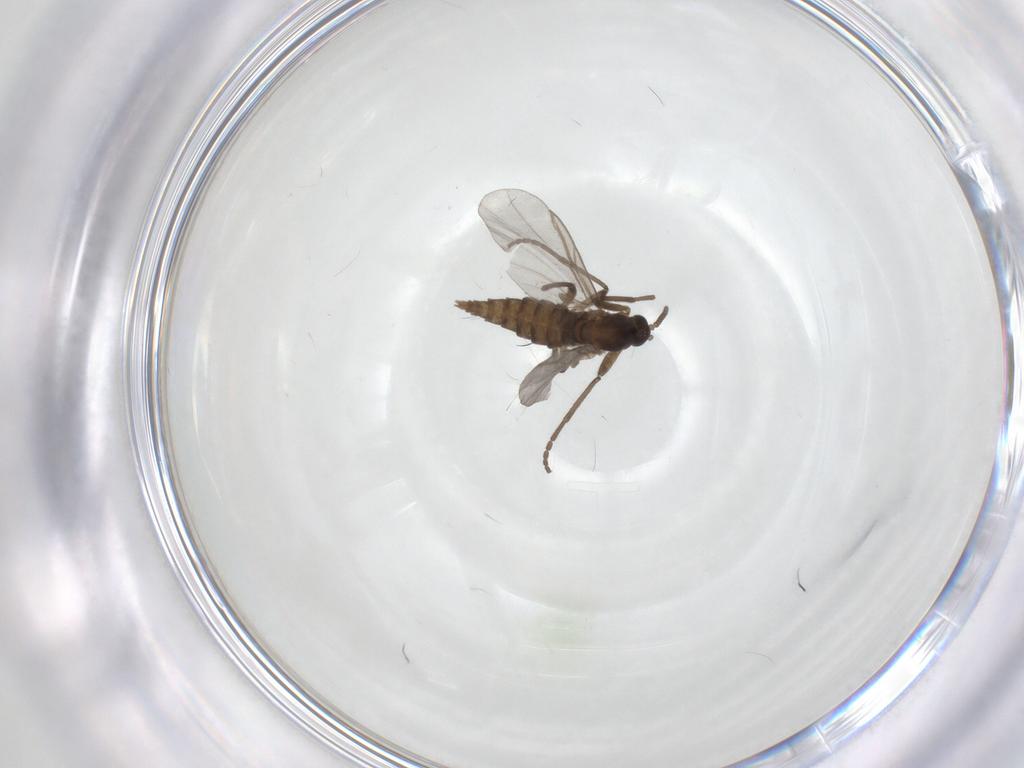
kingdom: Animalia
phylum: Arthropoda
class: Insecta
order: Diptera
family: Cecidomyiidae
